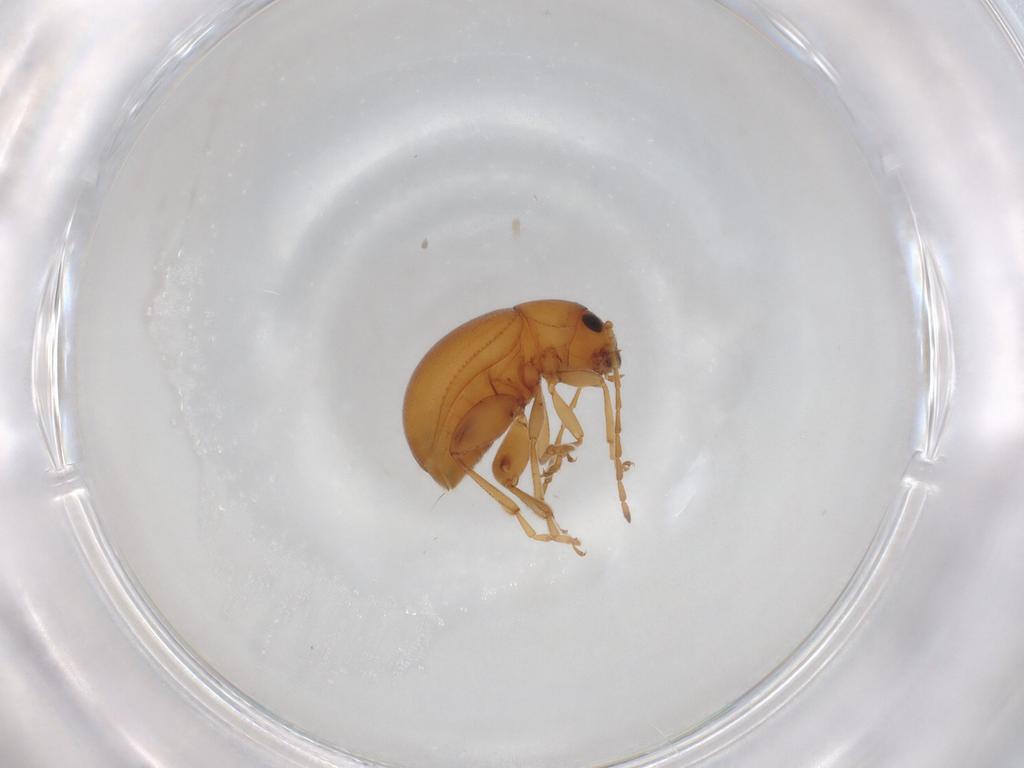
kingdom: Animalia
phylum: Arthropoda
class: Insecta
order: Coleoptera
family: Chrysomelidae
